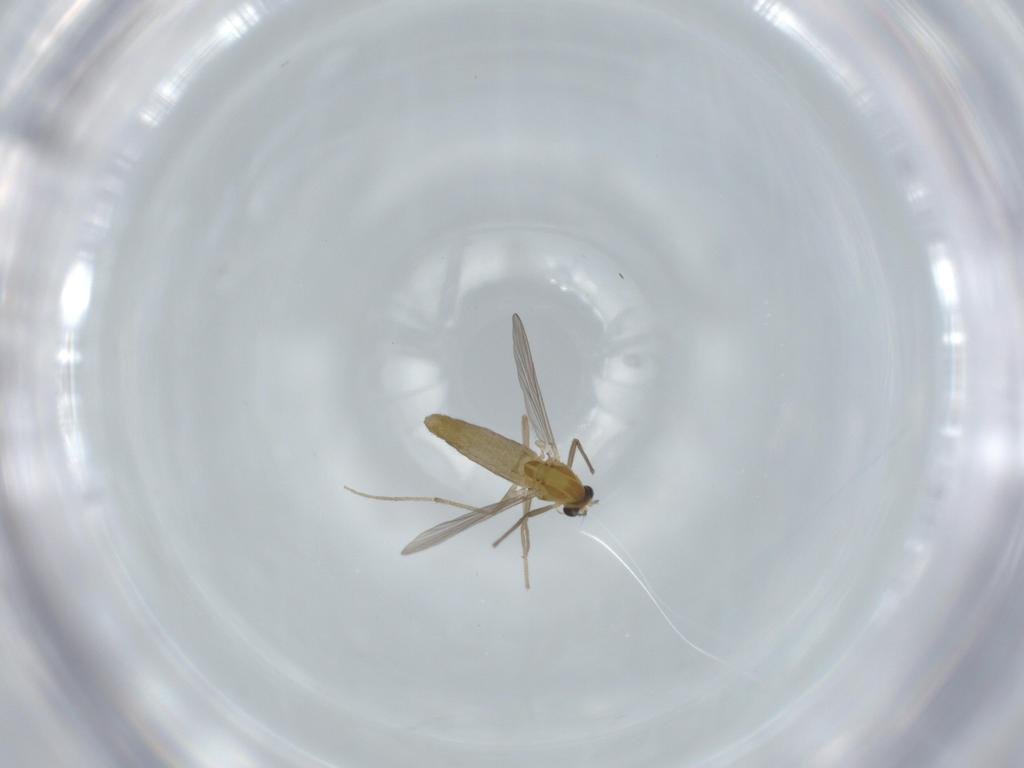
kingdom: Animalia
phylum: Arthropoda
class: Insecta
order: Diptera
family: Chironomidae
